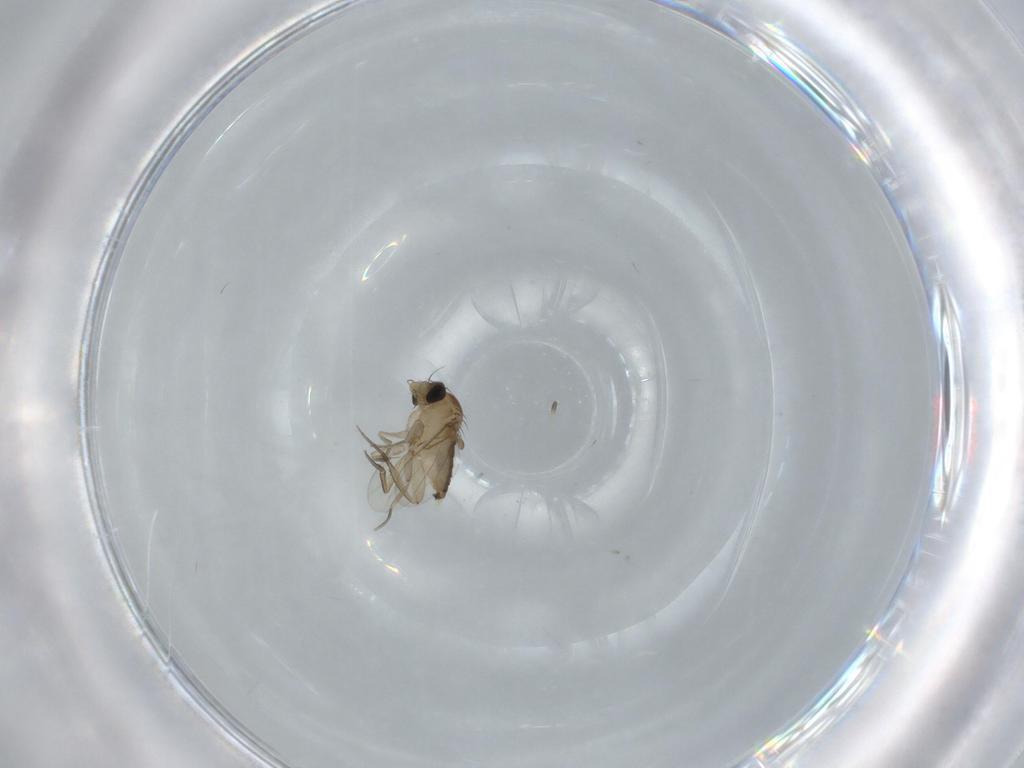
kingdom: Animalia
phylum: Arthropoda
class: Insecta
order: Diptera
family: Phoridae
